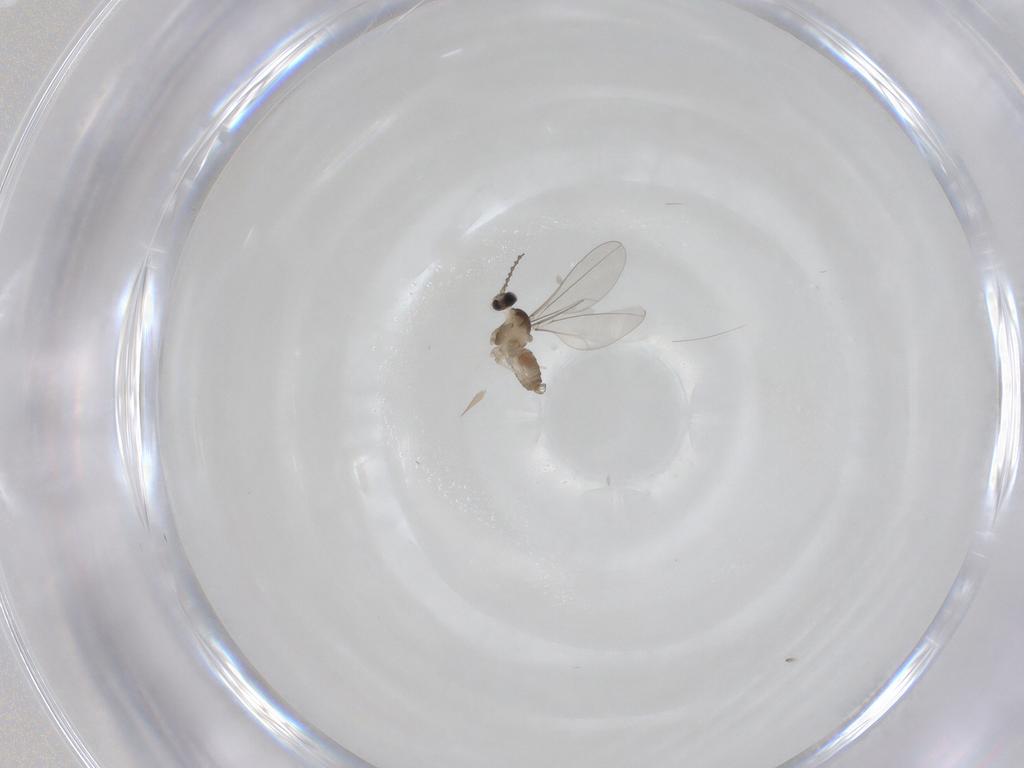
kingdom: Animalia
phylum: Arthropoda
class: Insecta
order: Diptera
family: Cecidomyiidae
